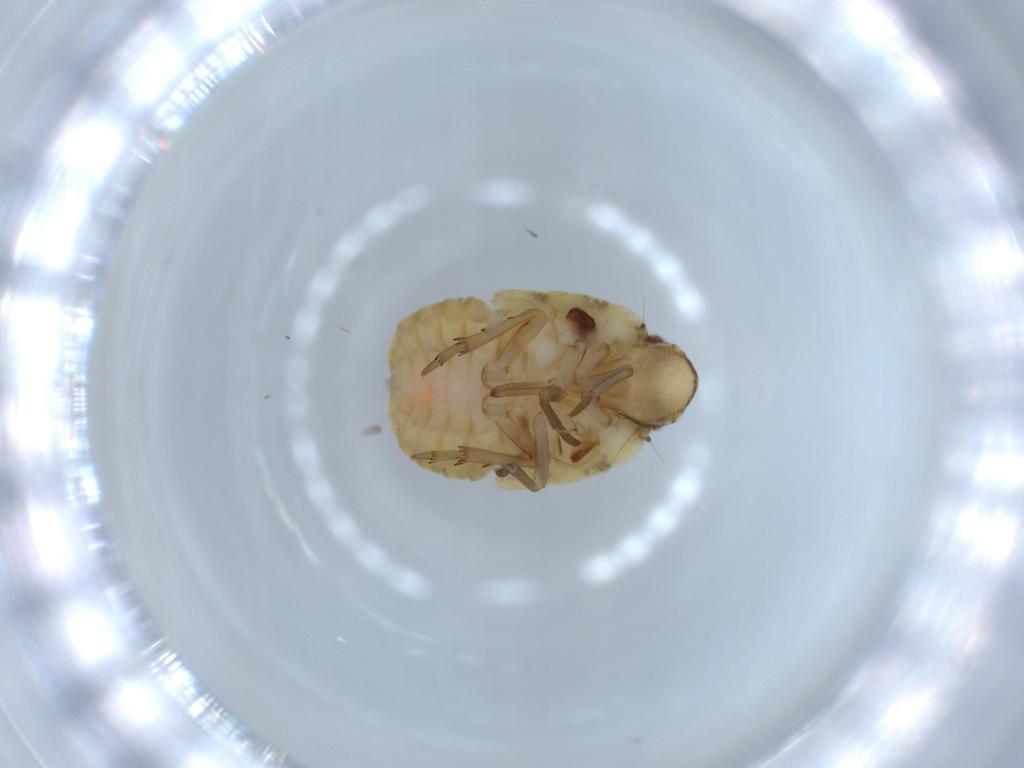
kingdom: Animalia
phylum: Arthropoda
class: Insecta
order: Hemiptera
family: Flatidae
